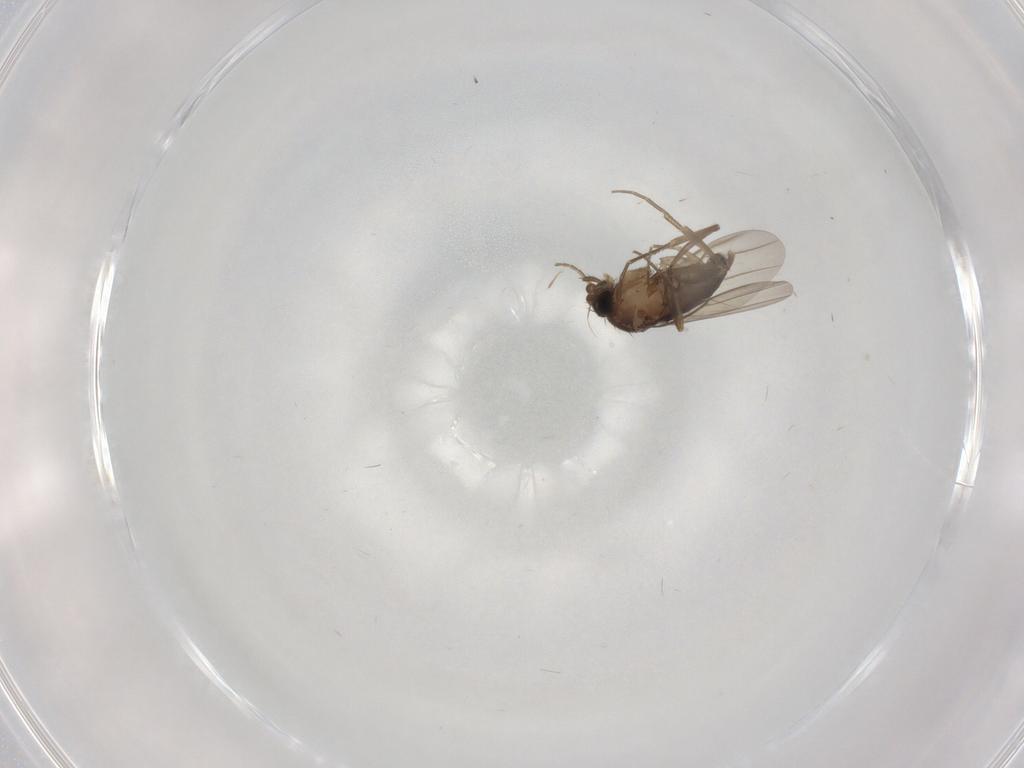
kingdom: Animalia
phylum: Arthropoda
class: Insecta
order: Diptera
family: Phoridae
